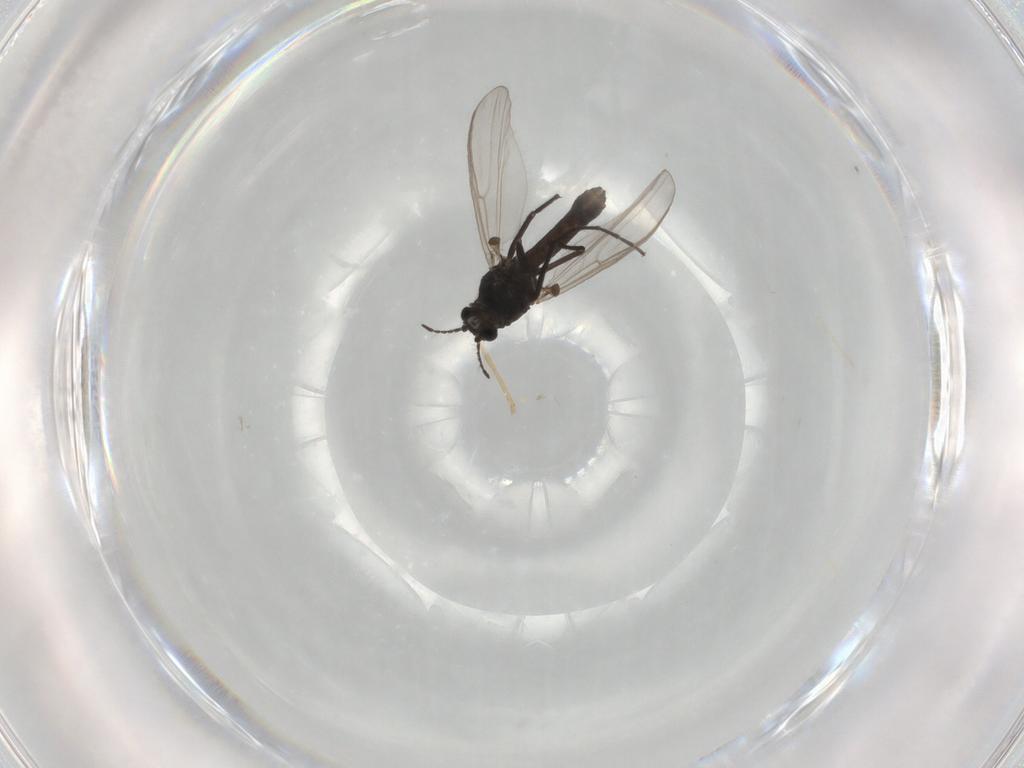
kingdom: Animalia
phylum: Arthropoda
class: Insecta
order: Diptera
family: Chironomidae
